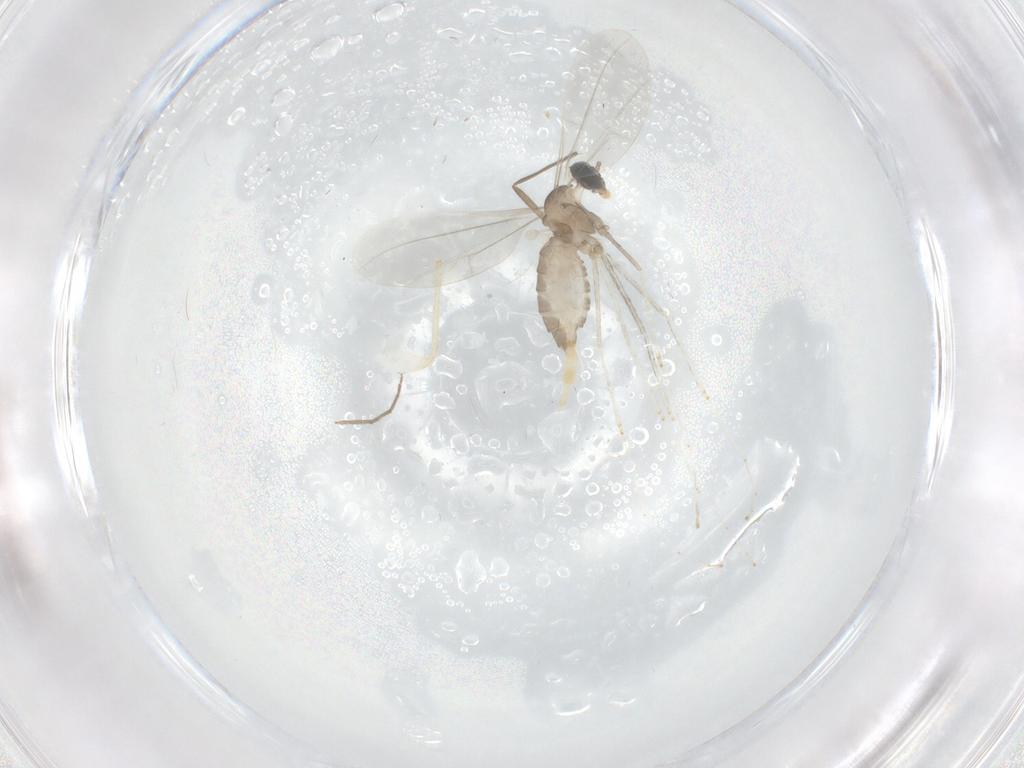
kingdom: Animalia
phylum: Arthropoda
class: Insecta
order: Diptera
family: Cecidomyiidae
